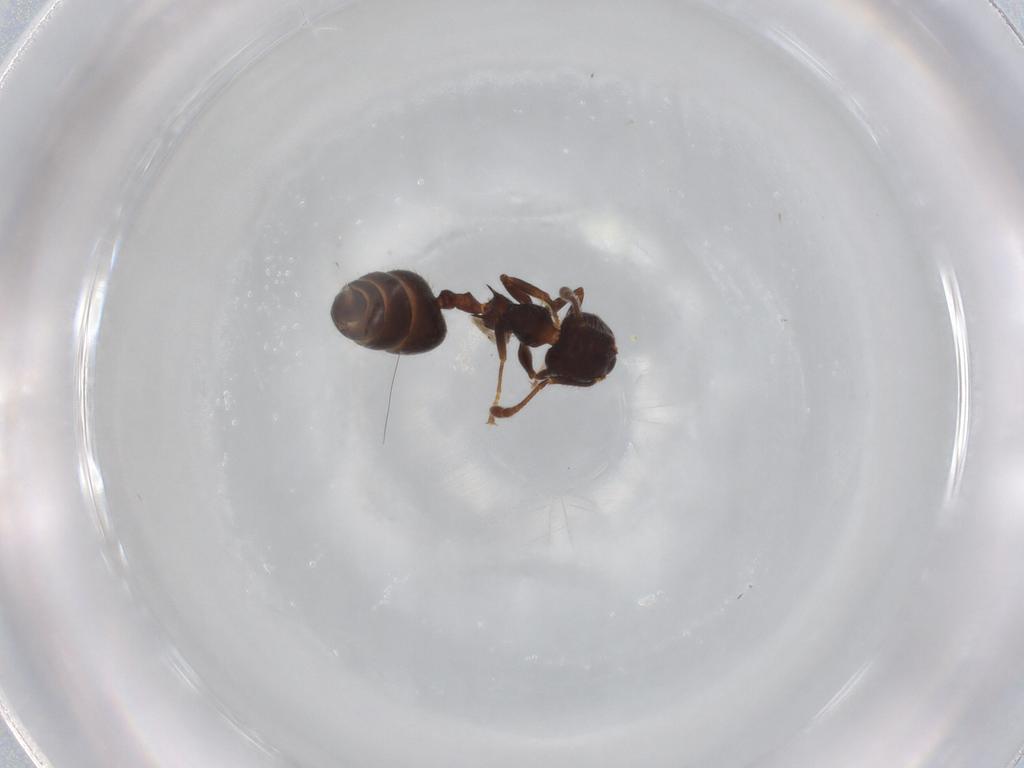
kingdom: Animalia
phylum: Arthropoda
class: Insecta
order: Hymenoptera
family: Formicidae
